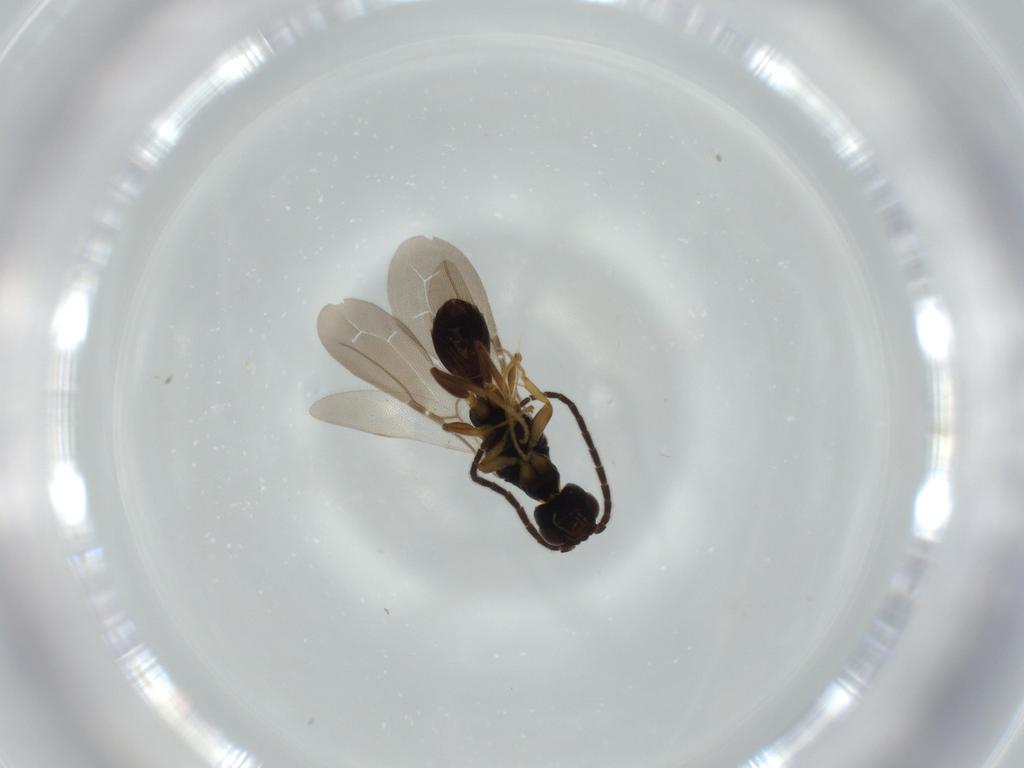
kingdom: Animalia
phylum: Arthropoda
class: Insecta
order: Hymenoptera
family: Bethylidae
